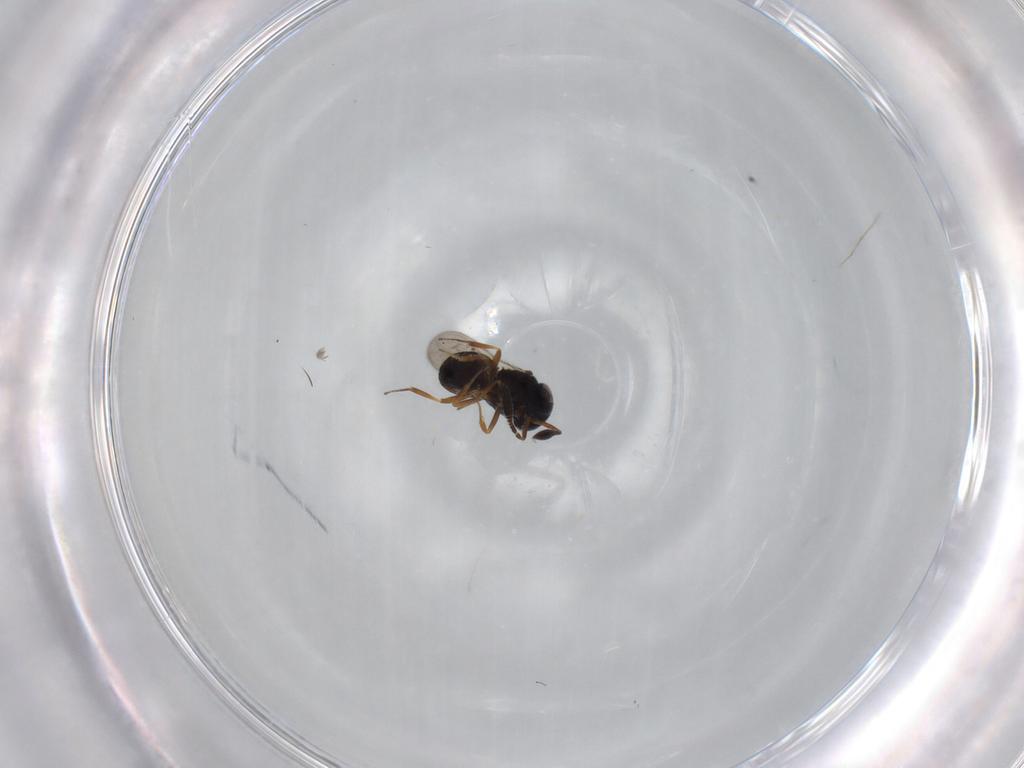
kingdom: Animalia
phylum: Arthropoda
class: Insecta
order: Hymenoptera
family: Scelionidae
